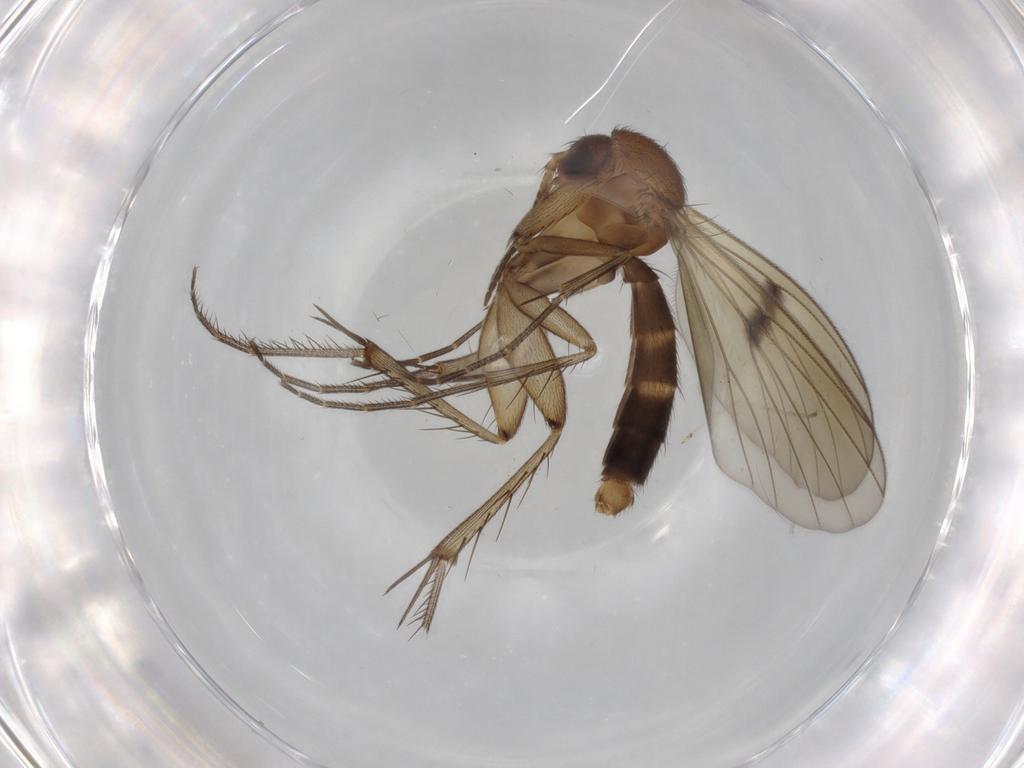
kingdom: Animalia
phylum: Arthropoda
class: Insecta
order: Diptera
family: Mycetophilidae
